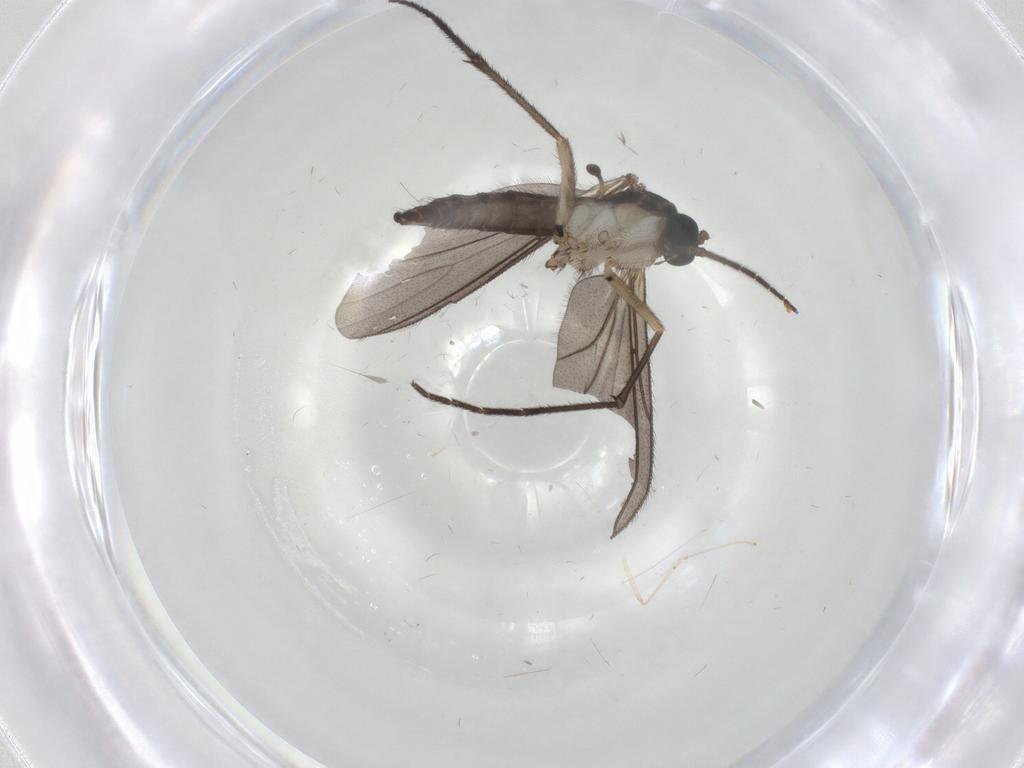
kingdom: Animalia
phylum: Arthropoda
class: Insecta
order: Diptera
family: Sciaridae
